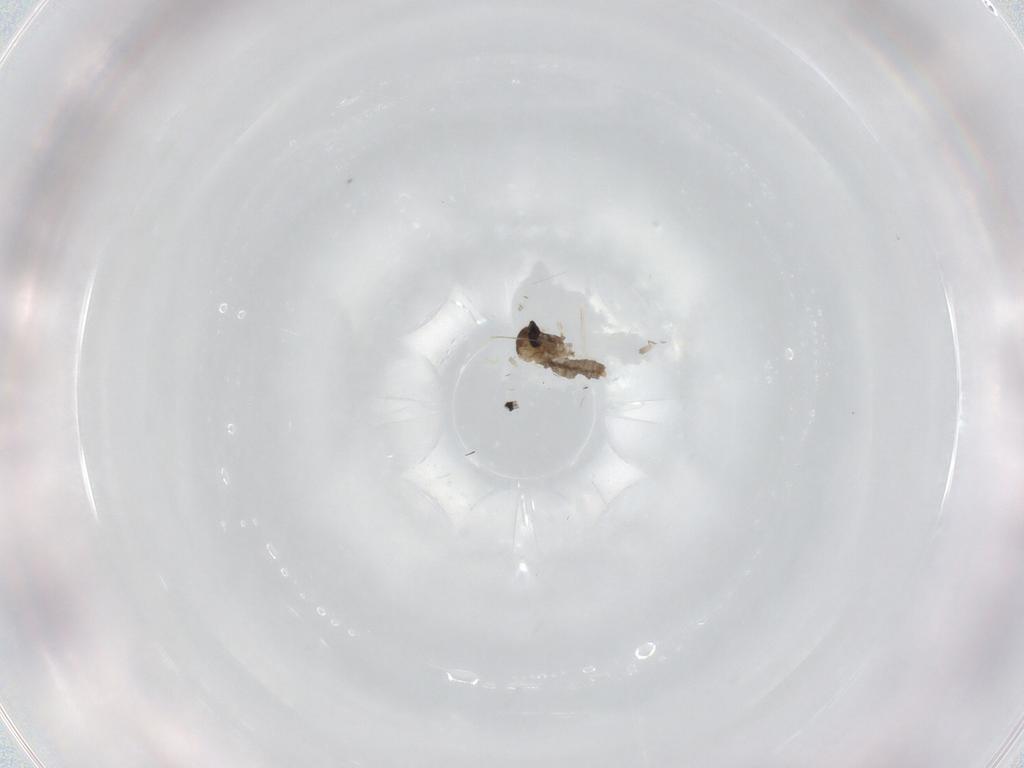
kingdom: Animalia
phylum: Arthropoda
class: Insecta
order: Diptera
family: Cecidomyiidae
